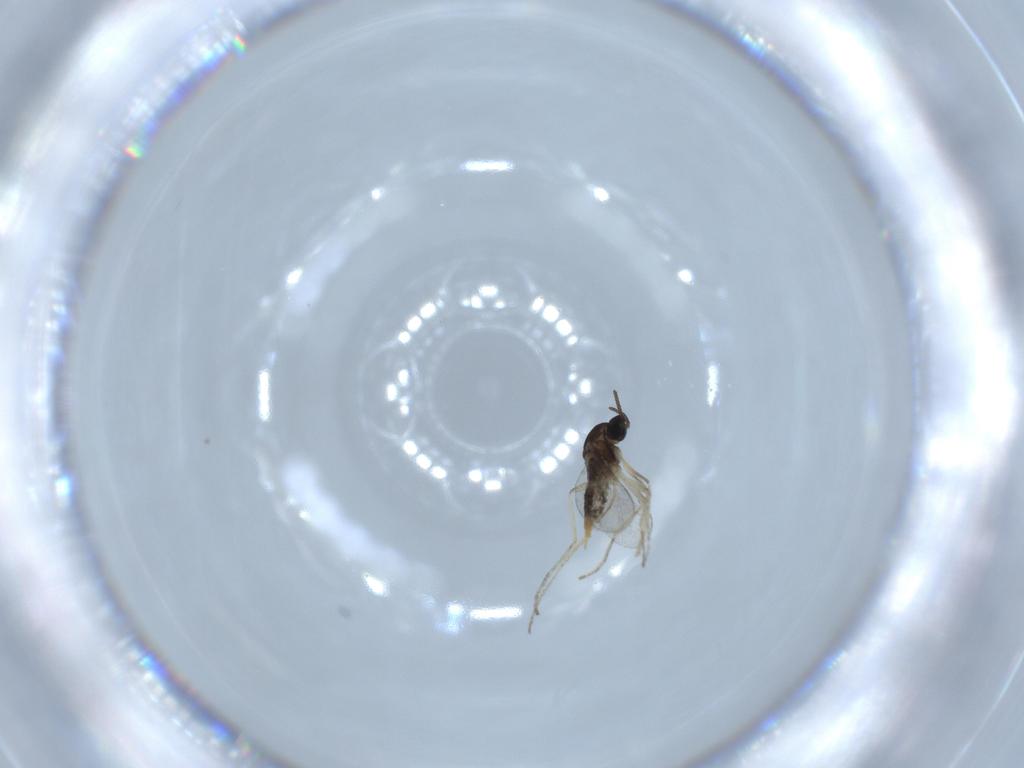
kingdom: Animalia
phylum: Arthropoda
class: Insecta
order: Diptera
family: Cecidomyiidae
